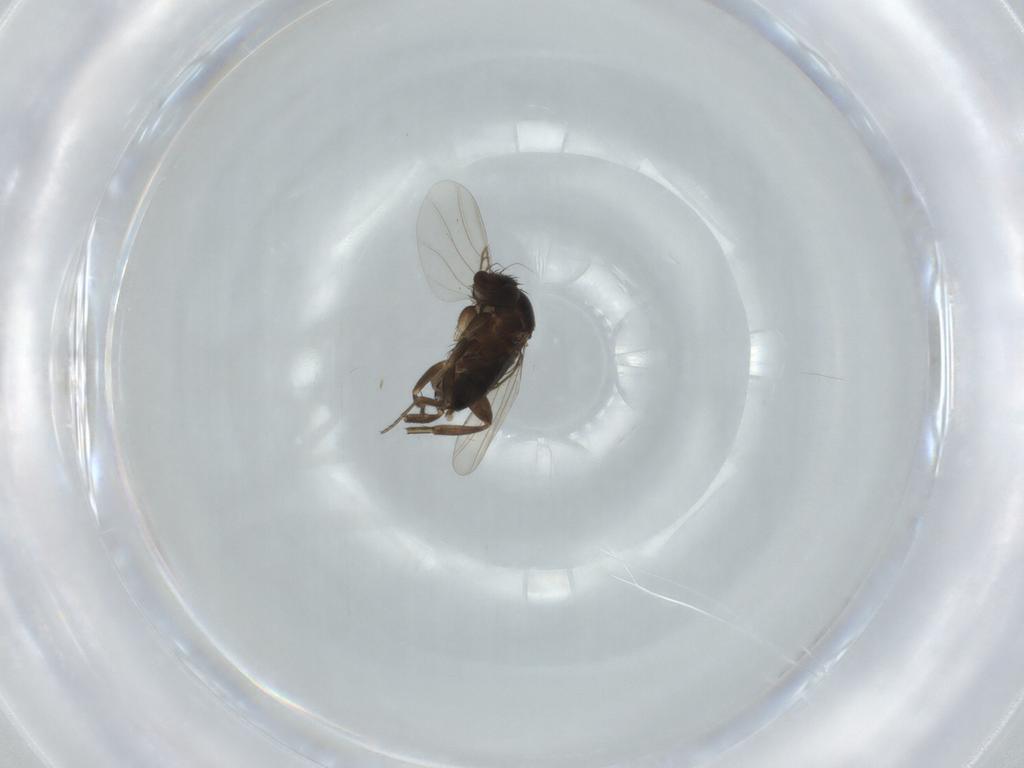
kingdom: Animalia
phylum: Arthropoda
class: Insecta
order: Diptera
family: Phoridae
